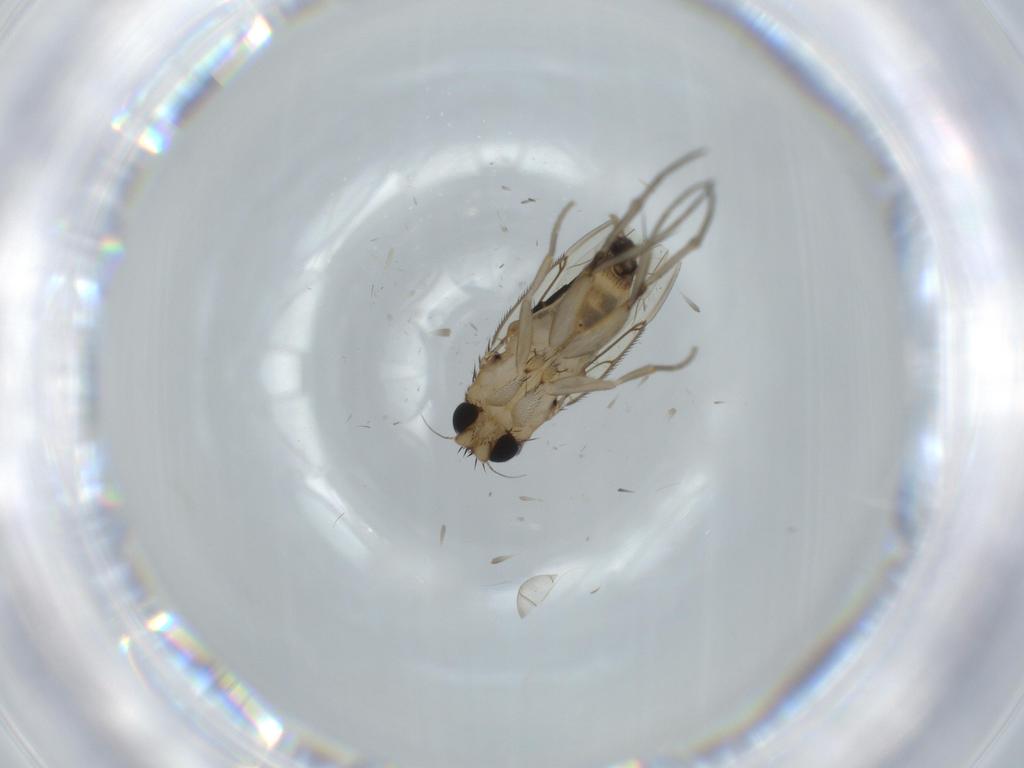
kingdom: Animalia
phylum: Arthropoda
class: Insecta
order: Diptera
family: Phoridae
